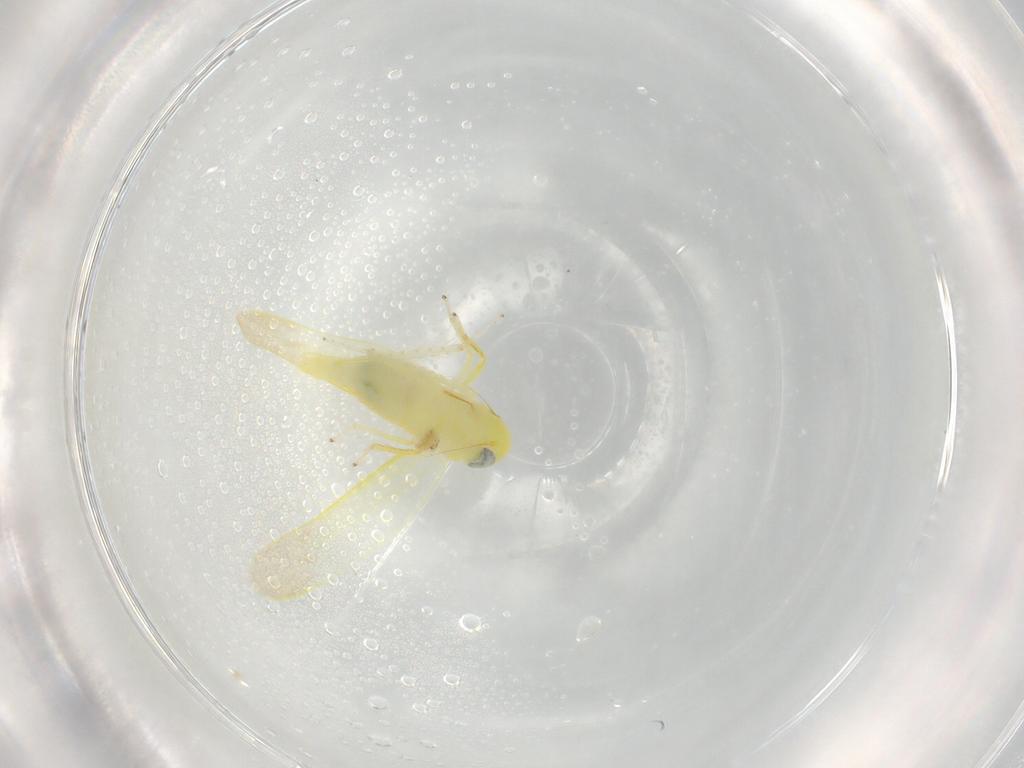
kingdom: Animalia
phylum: Arthropoda
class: Insecta
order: Hemiptera
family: Cicadellidae
